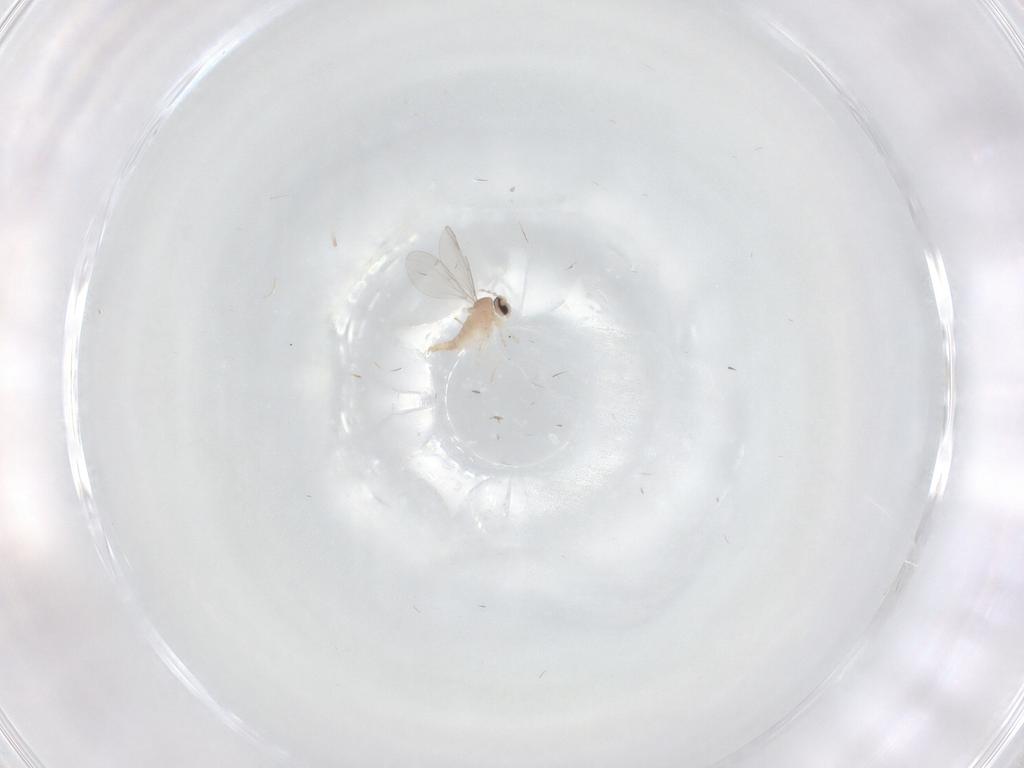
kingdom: Animalia
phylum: Arthropoda
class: Insecta
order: Diptera
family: Cecidomyiidae
